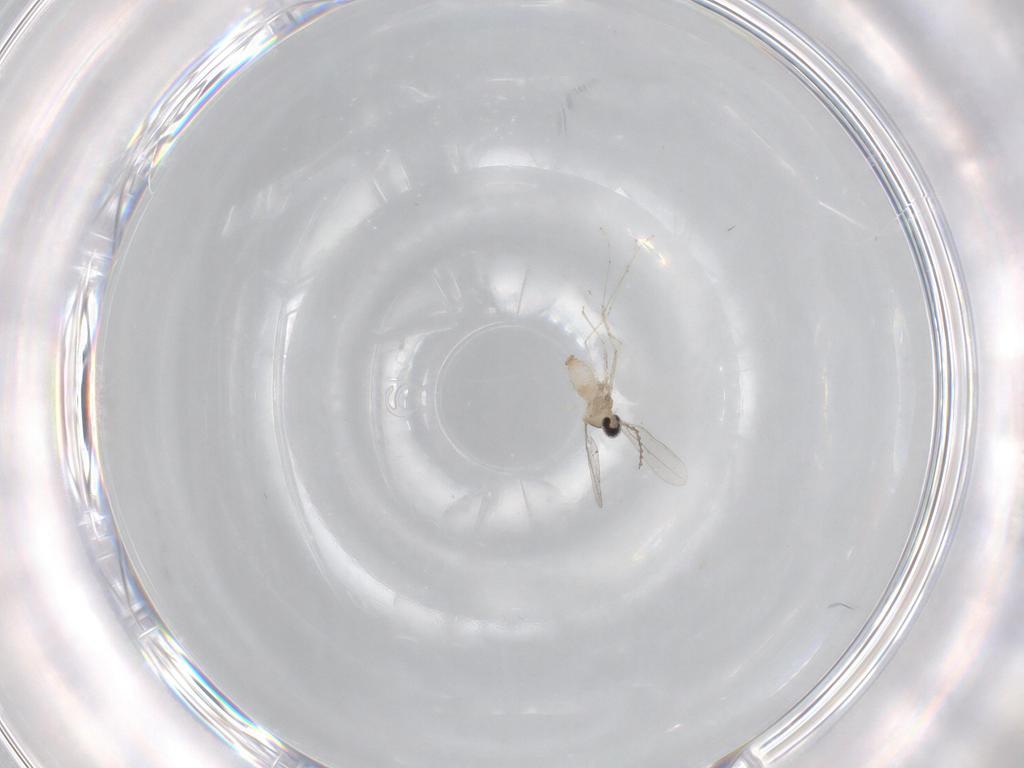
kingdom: Animalia
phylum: Arthropoda
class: Insecta
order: Diptera
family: Cecidomyiidae
